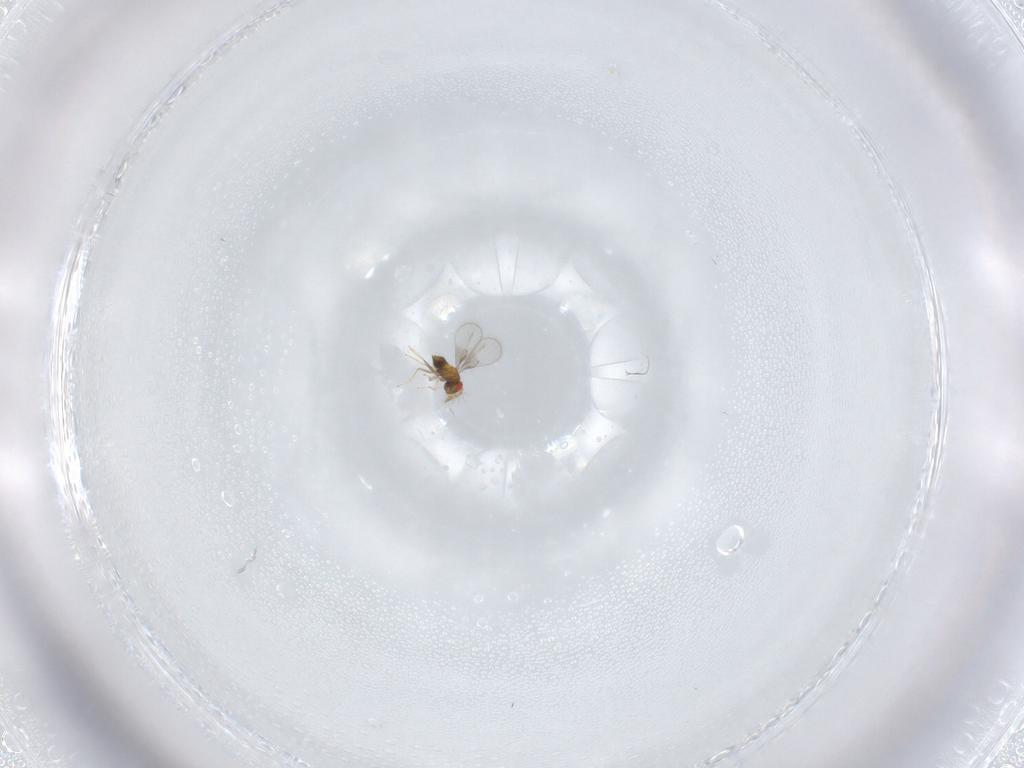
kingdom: Animalia
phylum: Arthropoda
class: Insecta
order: Hymenoptera
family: Trichogrammatidae
